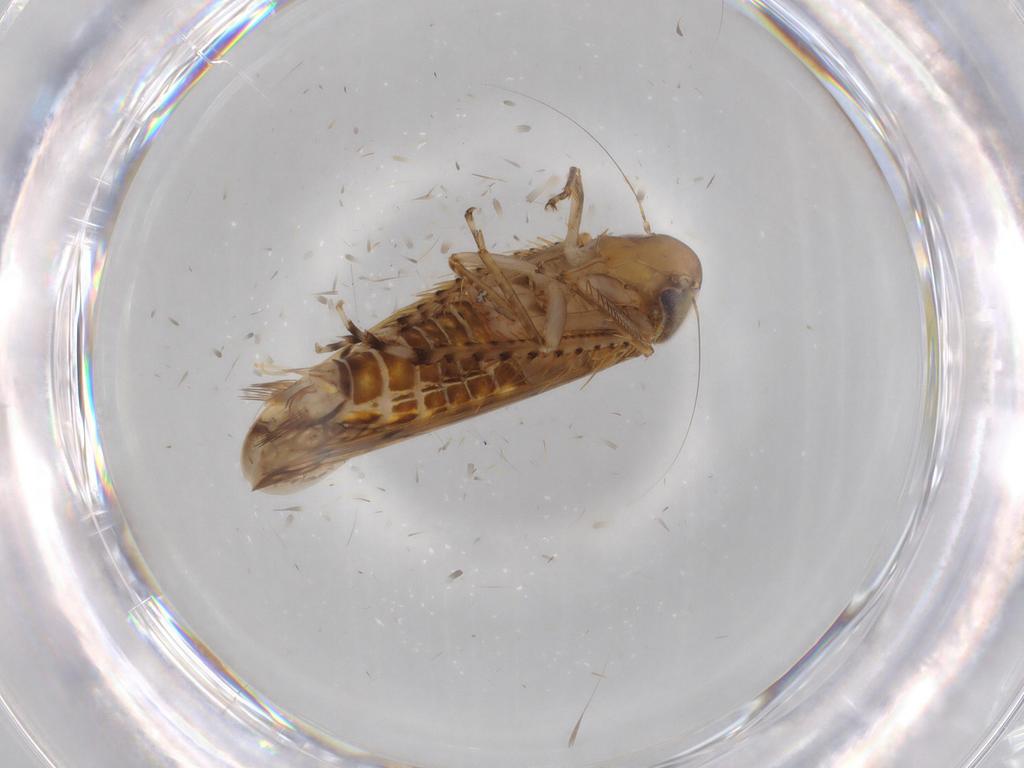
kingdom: Animalia
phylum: Arthropoda
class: Insecta
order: Hemiptera
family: Cicadellidae
